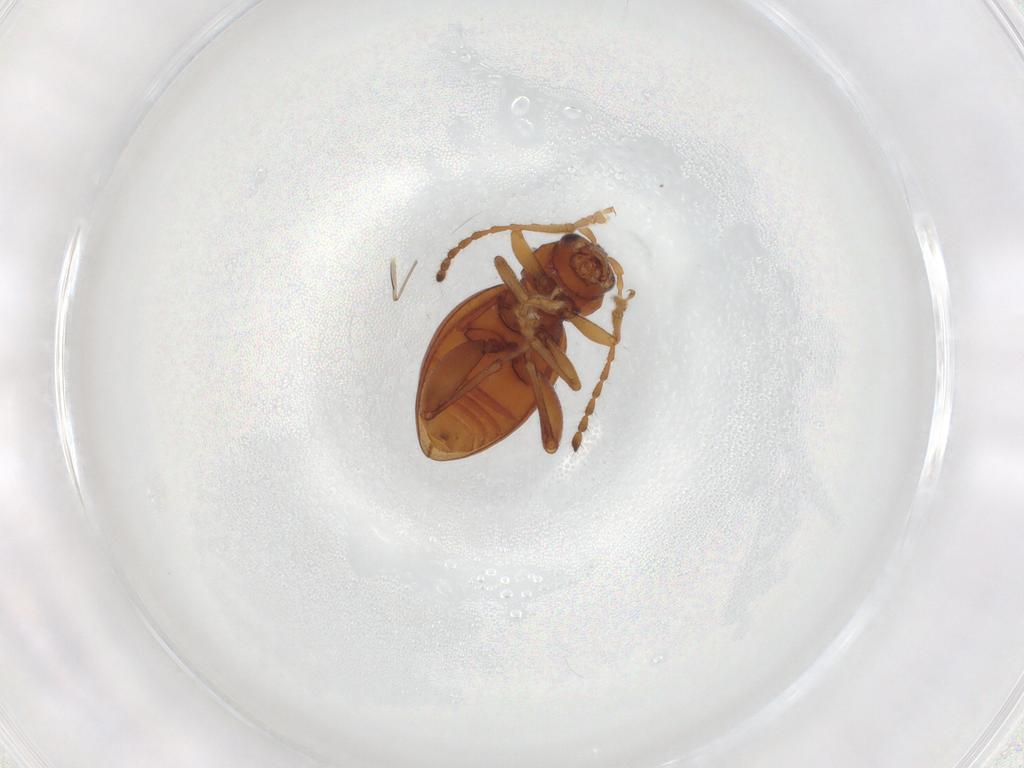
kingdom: Animalia
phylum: Arthropoda
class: Insecta
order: Coleoptera
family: Chrysomelidae
